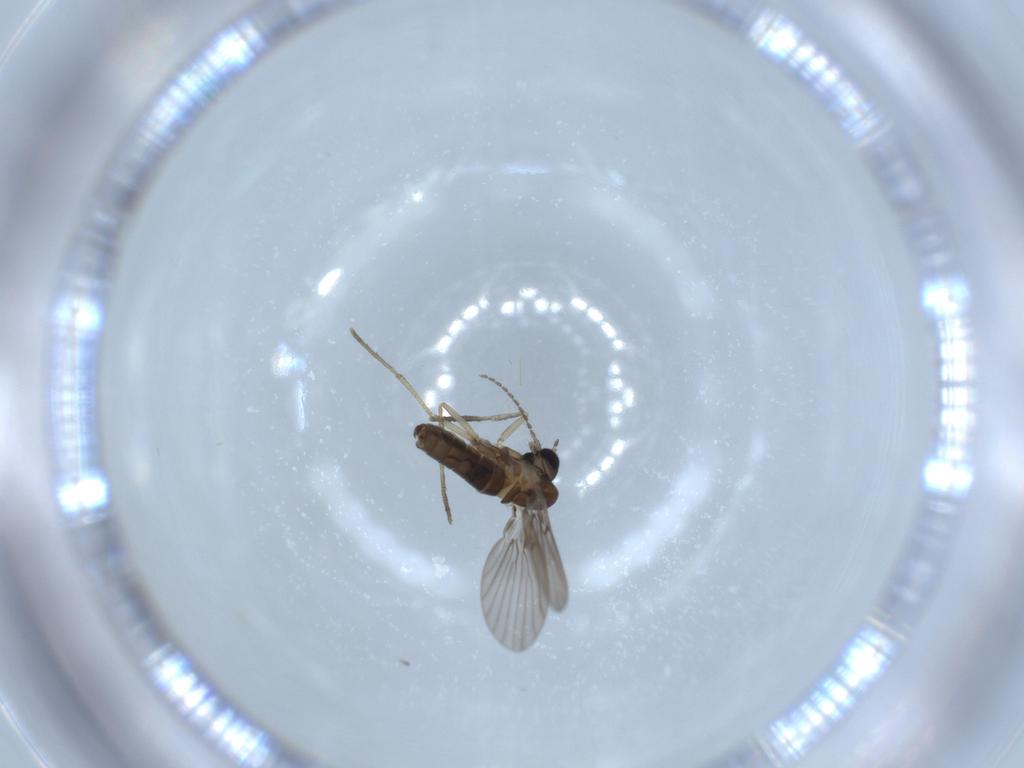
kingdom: Animalia
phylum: Arthropoda
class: Insecta
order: Diptera
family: Psychodidae
